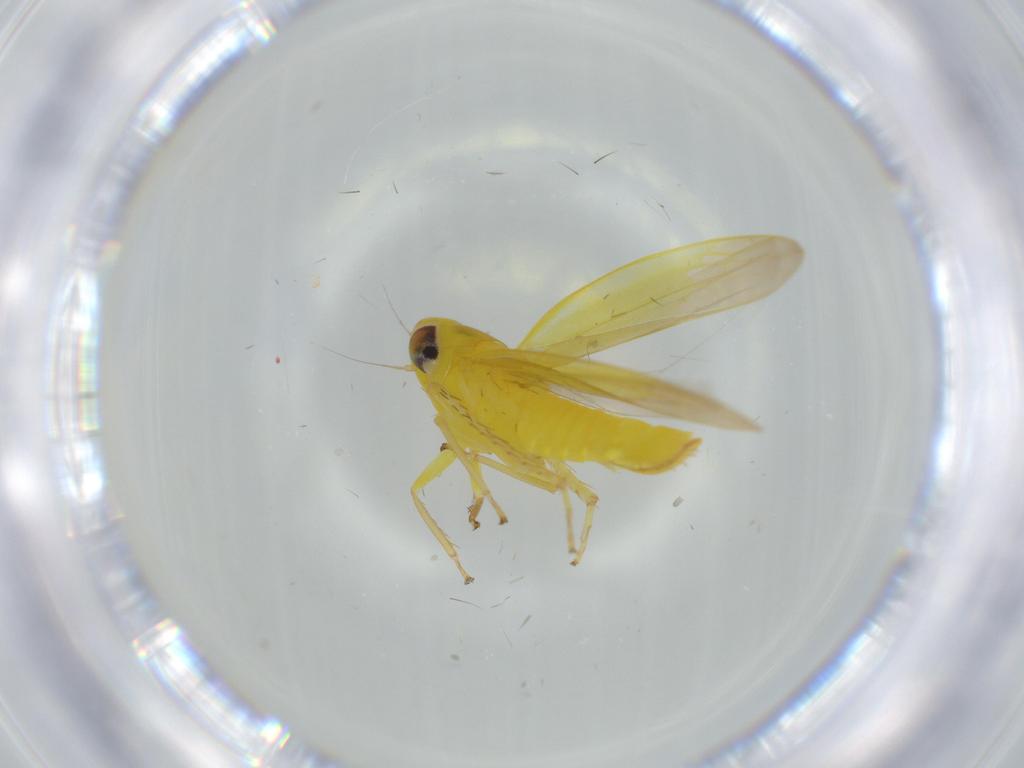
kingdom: Animalia
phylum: Arthropoda
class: Insecta
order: Hemiptera
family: Cicadellidae
